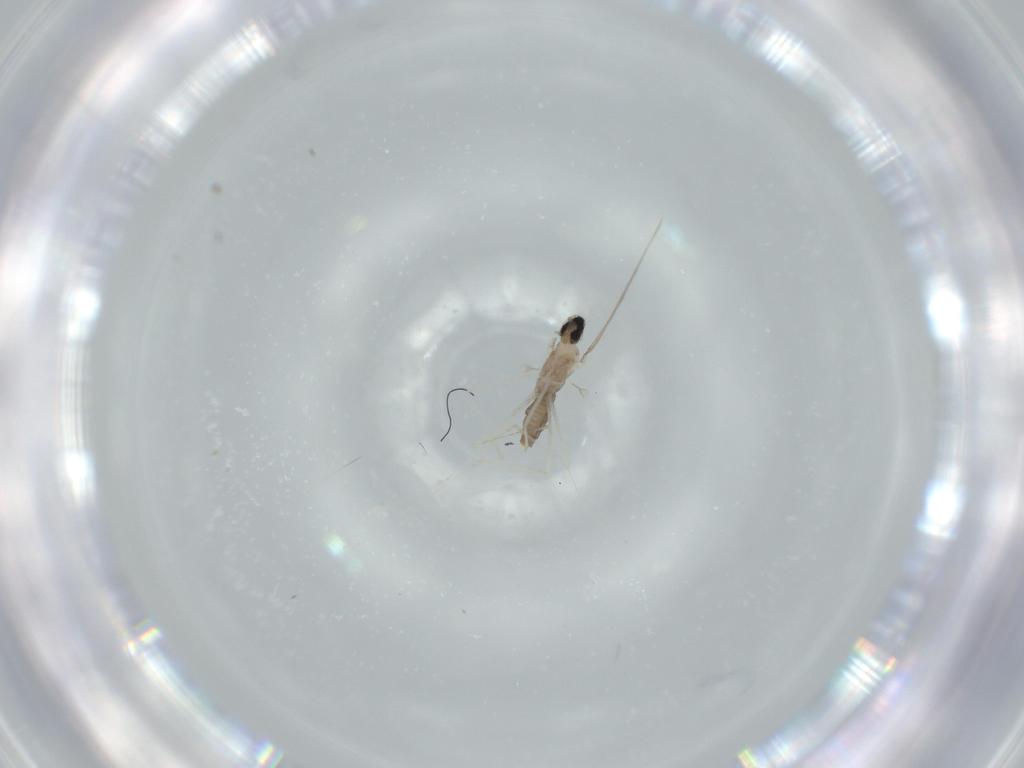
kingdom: Animalia
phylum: Arthropoda
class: Insecta
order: Diptera
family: Cecidomyiidae
